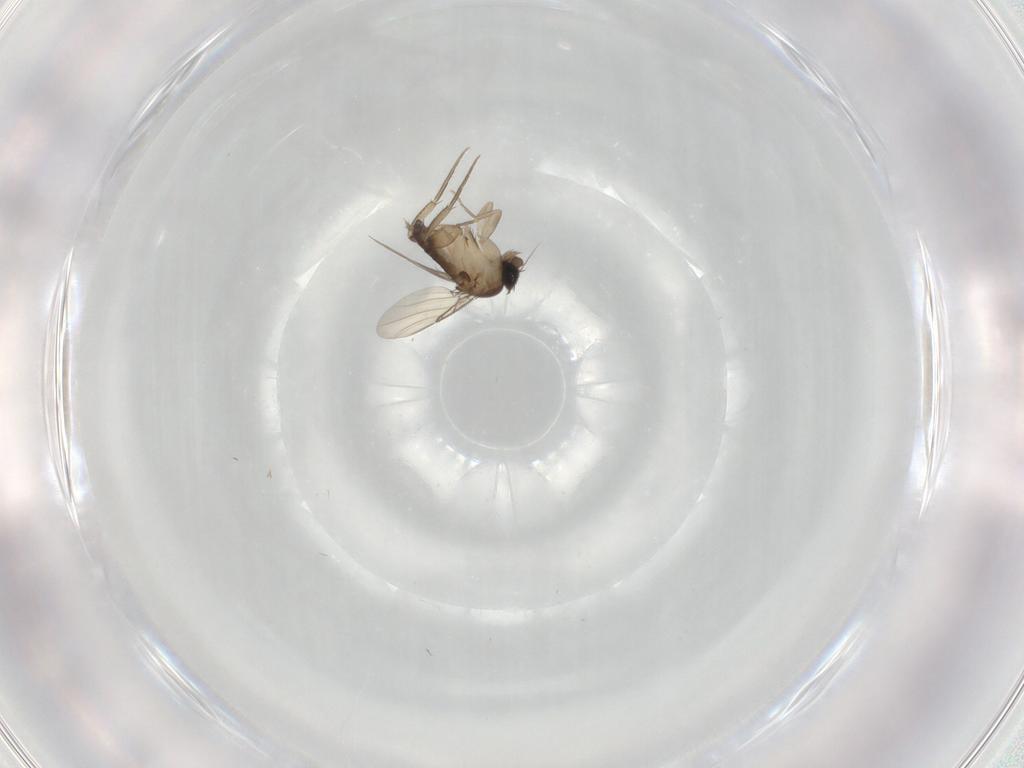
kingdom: Animalia
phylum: Arthropoda
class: Insecta
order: Diptera
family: Phoridae
